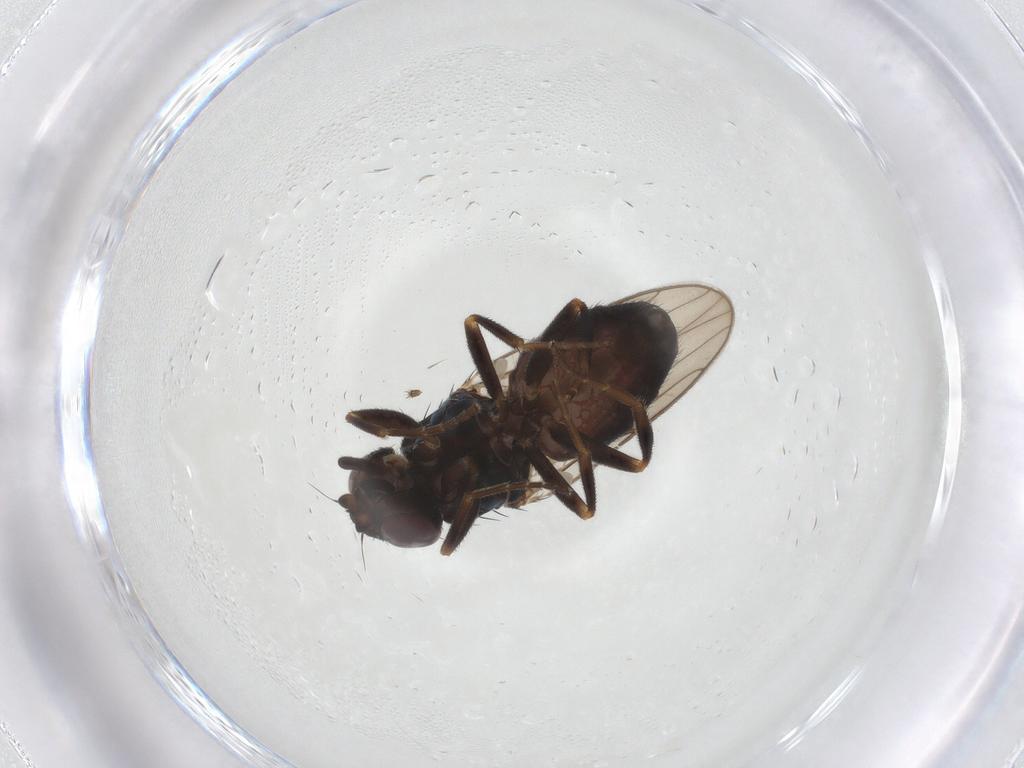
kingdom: Animalia
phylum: Arthropoda
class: Insecta
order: Diptera
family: Chloropidae
